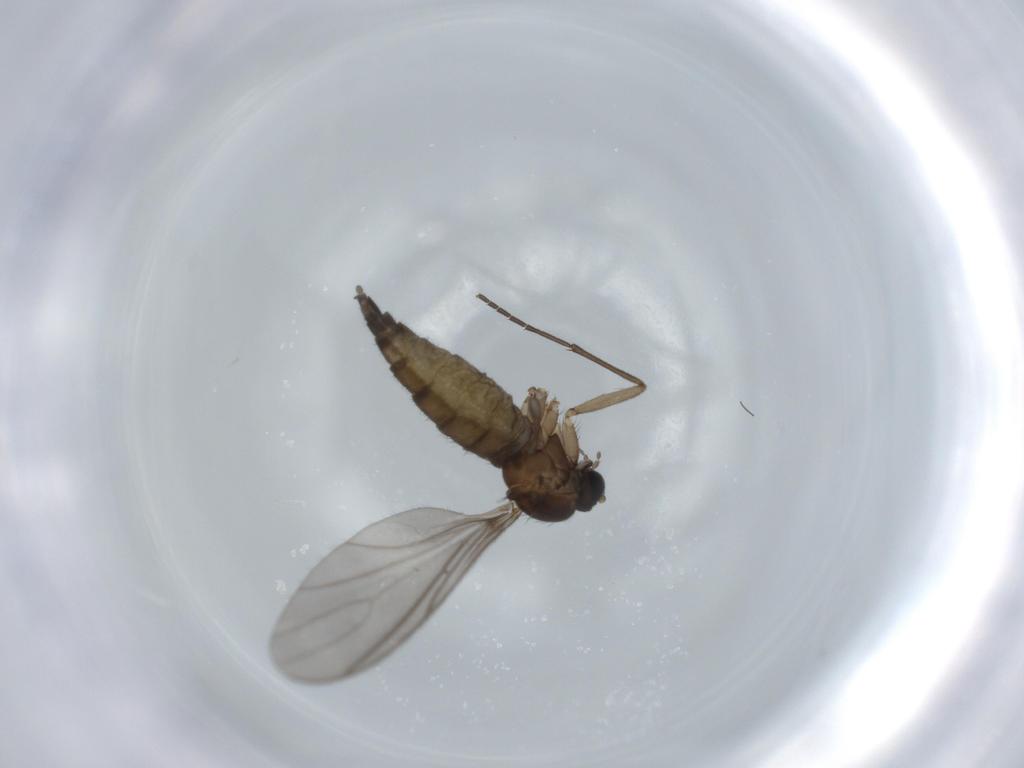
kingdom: Animalia
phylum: Arthropoda
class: Insecta
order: Diptera
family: Sciaridae
